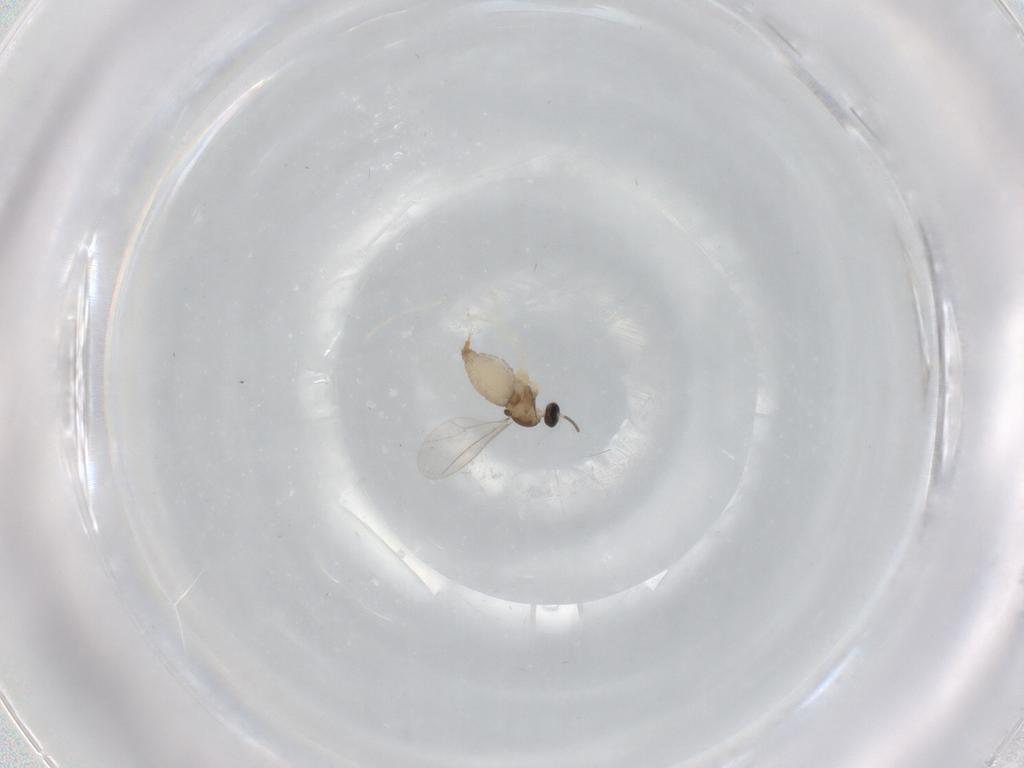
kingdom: Animalia
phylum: Arthropoda
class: Insecta
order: Diptera
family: Cecidomyiidae
